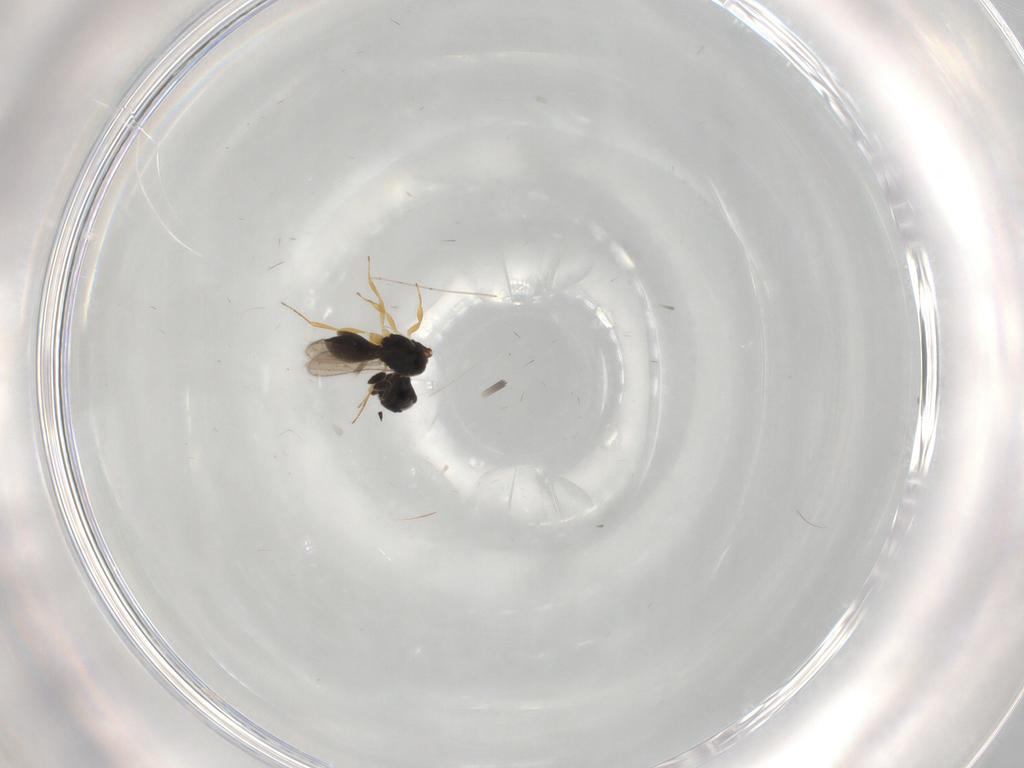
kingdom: Animalia
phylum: Arthropoda
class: Insecta
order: Hymenoptera
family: Scelionidae
